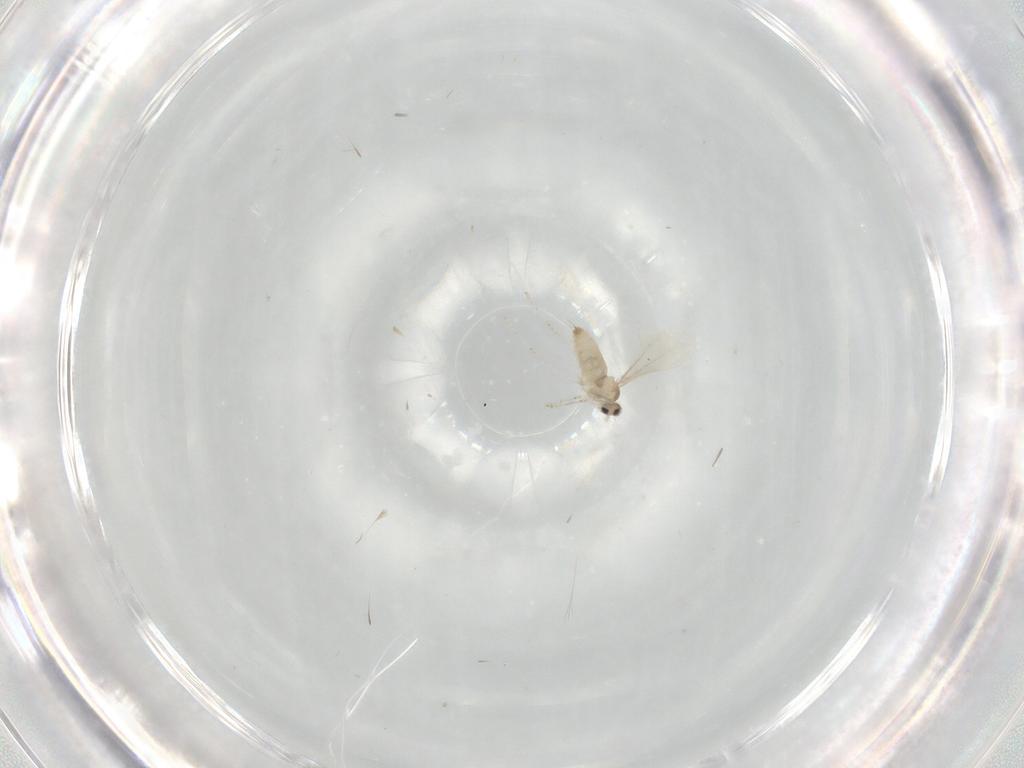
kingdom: Animalia
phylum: Arthropoda
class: Insecta
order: Diptera
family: Cecidomyiidae
